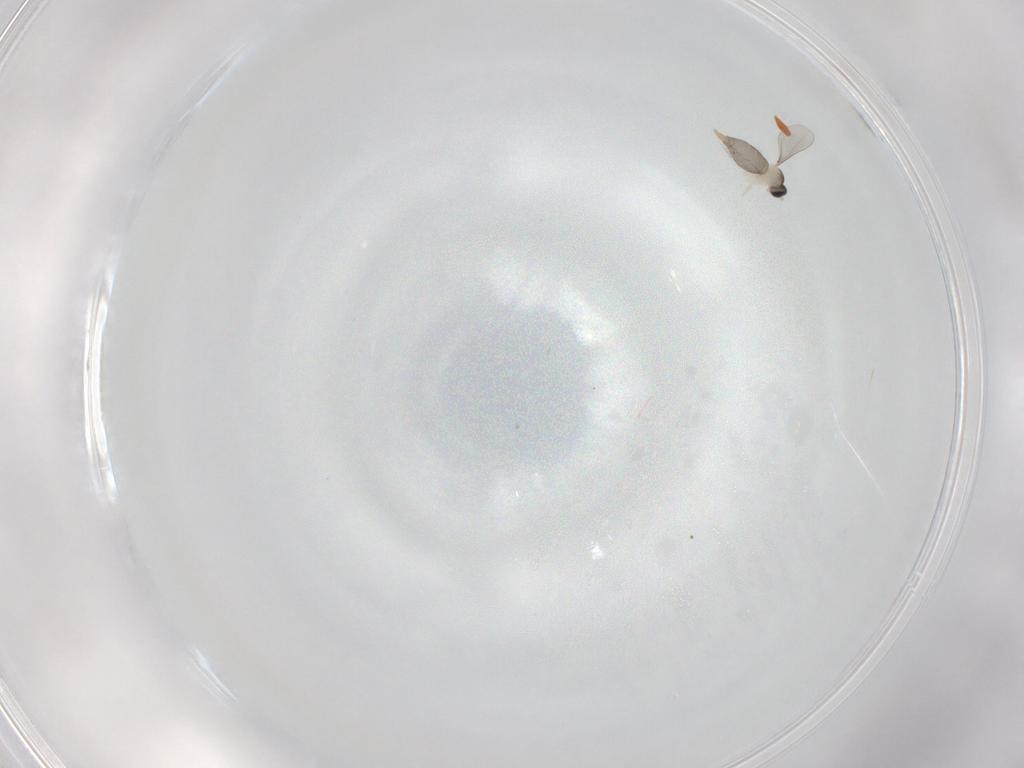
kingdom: Animalia
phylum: Arthropoda
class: Insecta
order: Diptera
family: Cecidomyiidae
